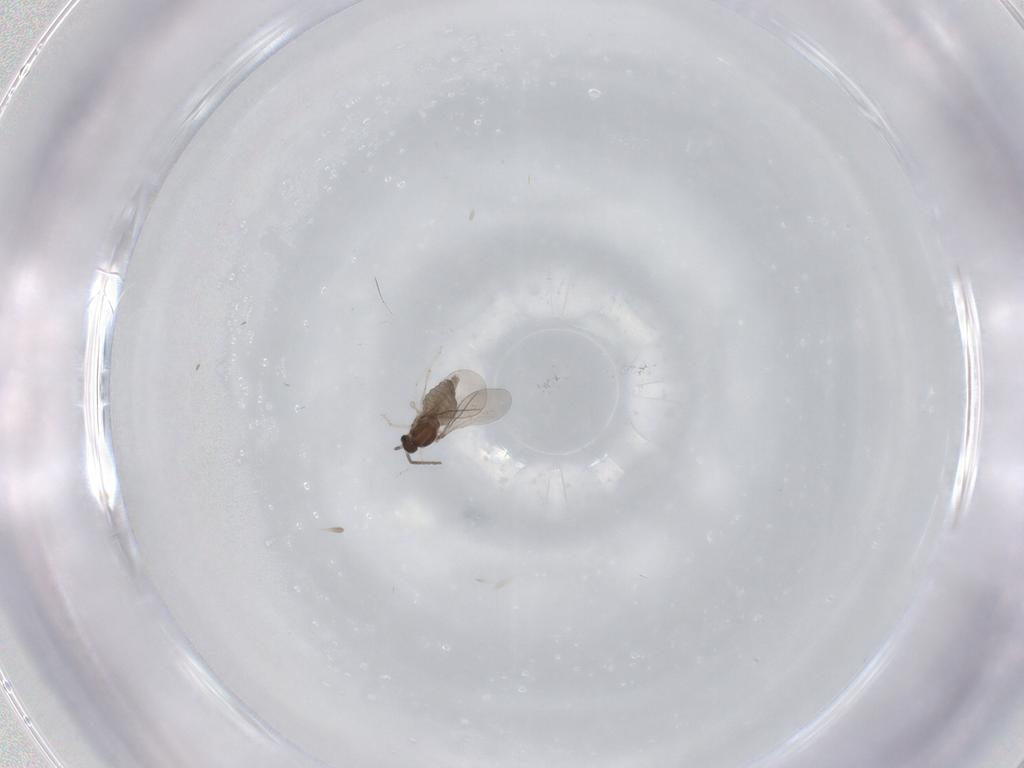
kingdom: Animalia
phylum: Arthropoda
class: Insecta
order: Diptera
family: Cecidomyiidae
